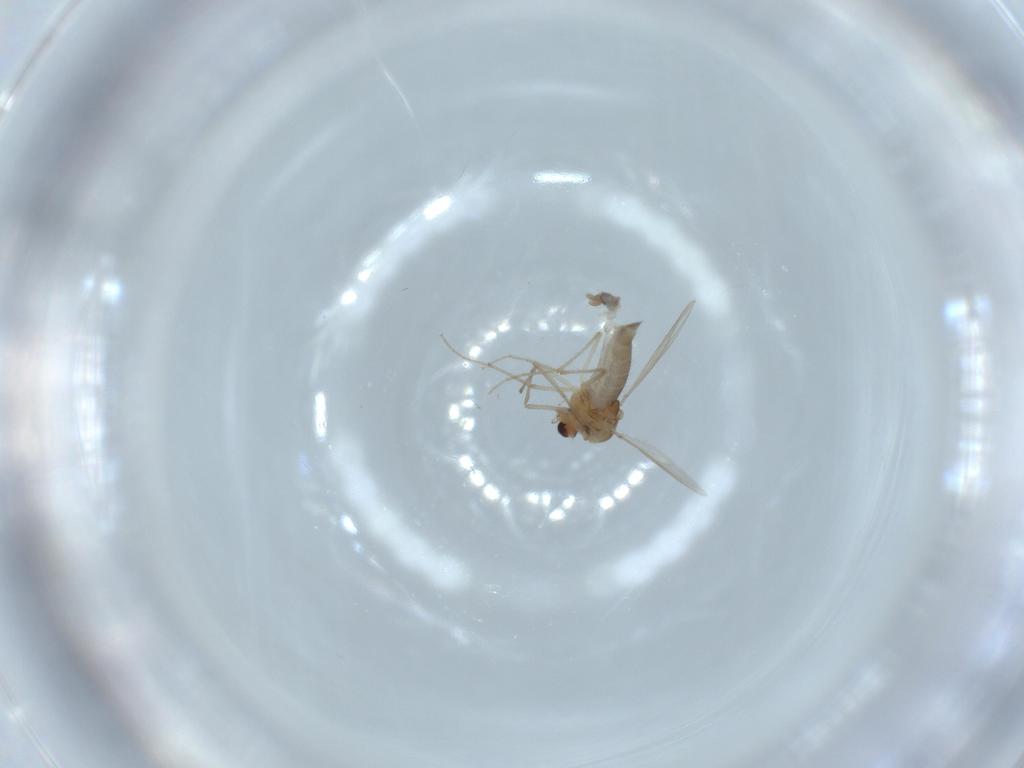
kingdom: Animalia
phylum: Arthropoda
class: Insecta
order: Diptera
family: Chironomidae
